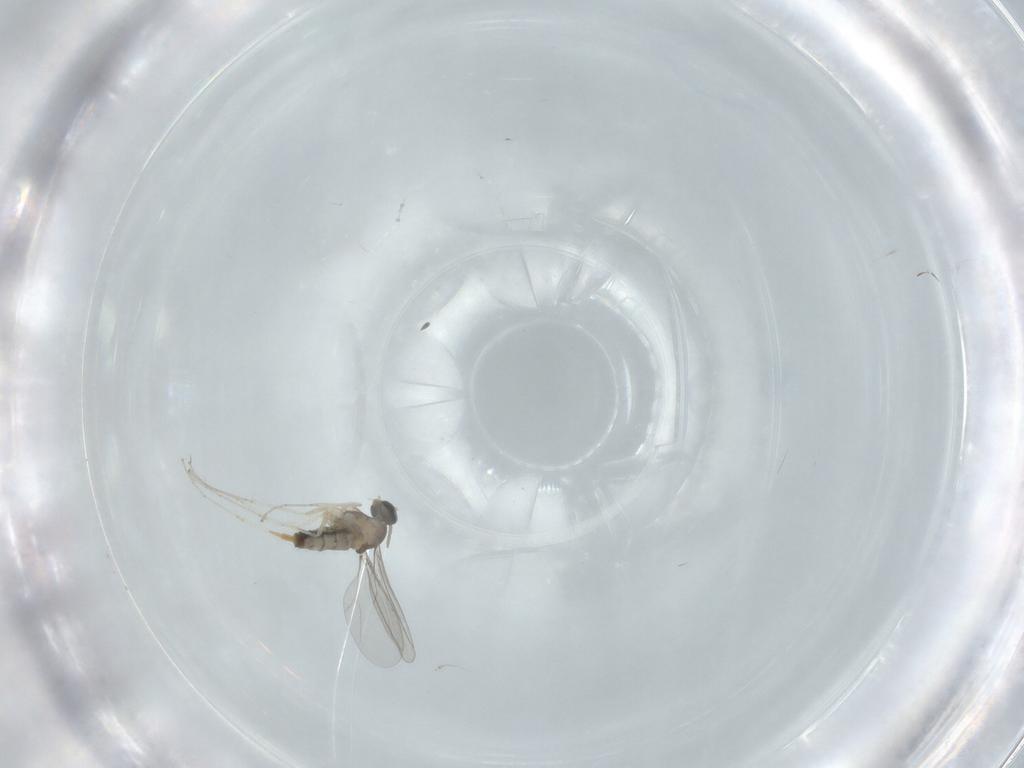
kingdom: Animalia
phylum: Arthropoda
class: Insecta
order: Diptera
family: Cecidomyiidae
